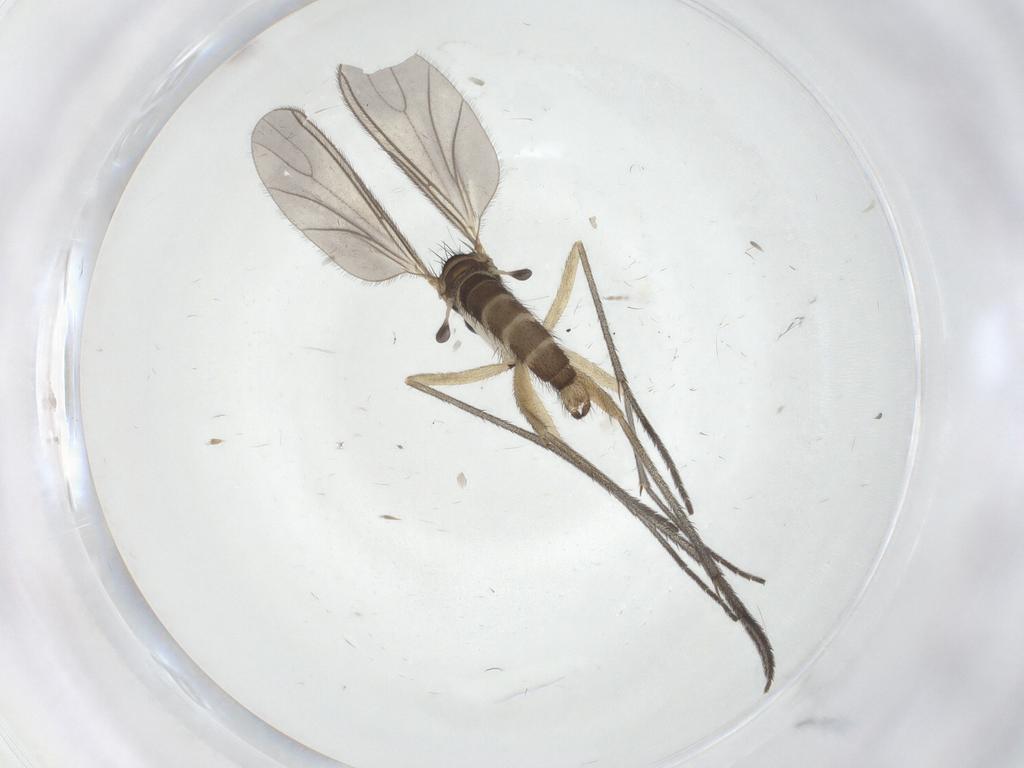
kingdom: Animalia
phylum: Arthropoda
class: Insecta
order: Diptera
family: Sciaridae
